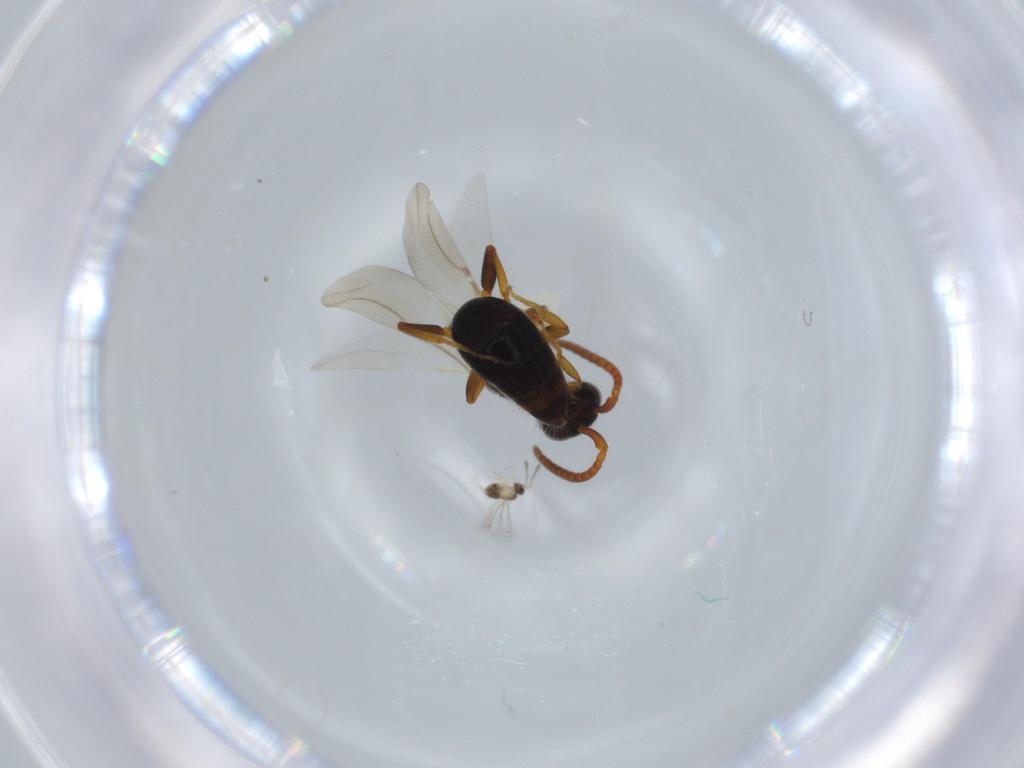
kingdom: Animalia
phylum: Arthropoda
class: Insecta
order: Hymenoptera
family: Bethylidae
